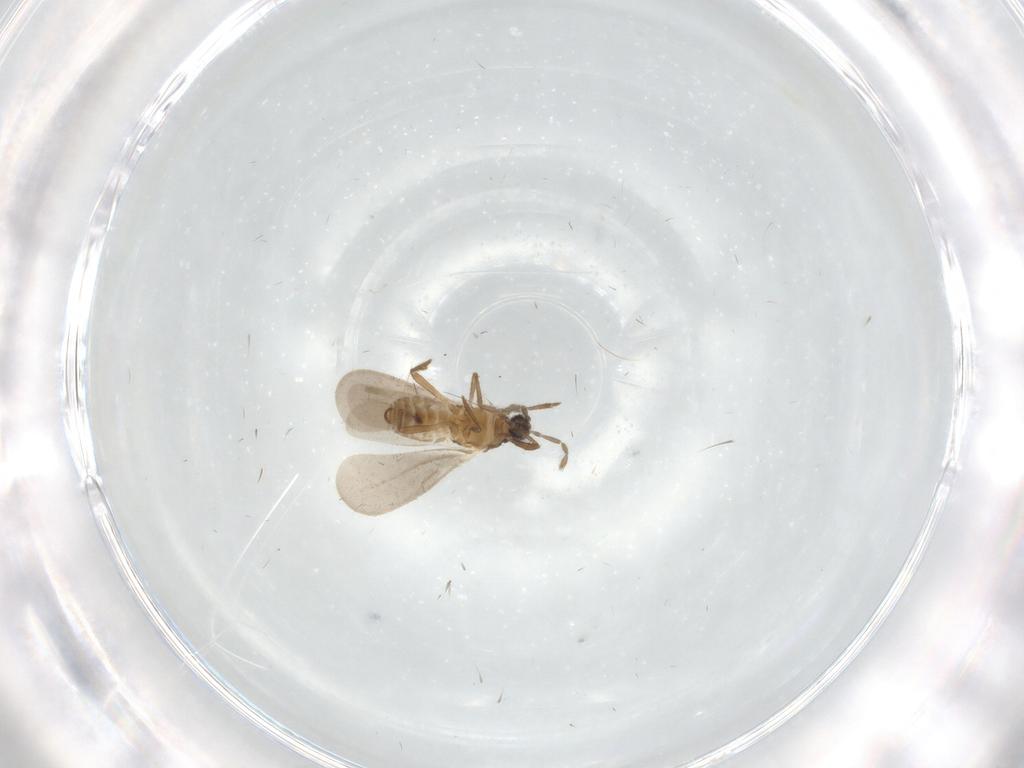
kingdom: Animalia
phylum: Arthropoda
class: Insecta
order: Hemiptera
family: Enicocephalidae
